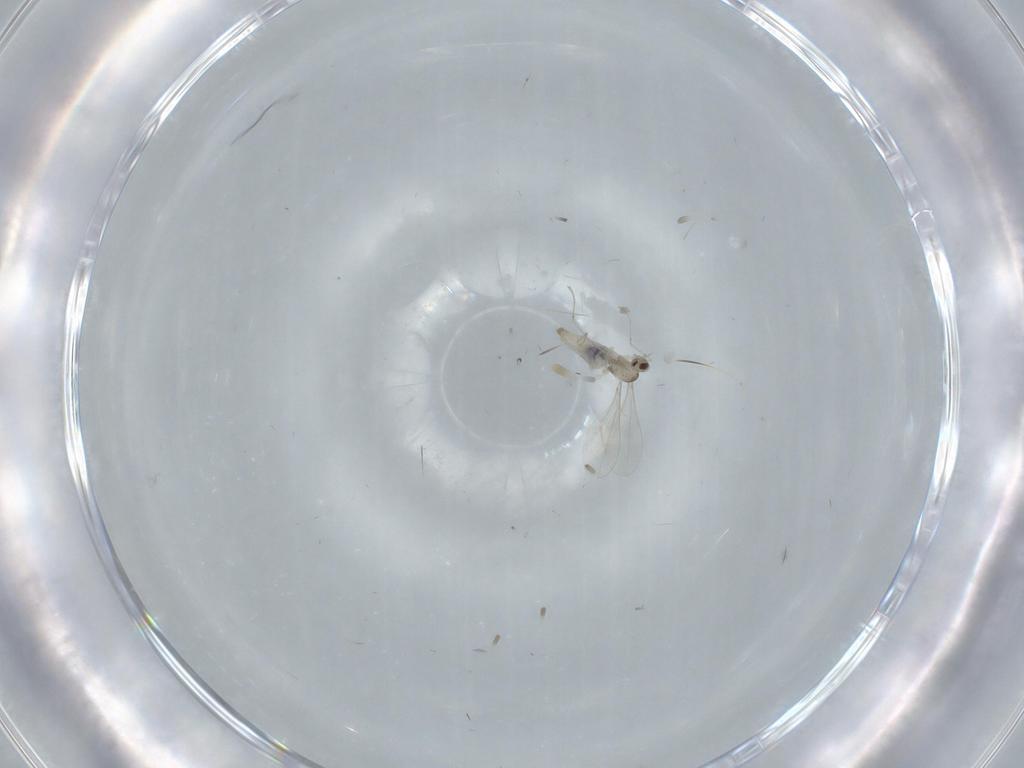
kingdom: Animalia
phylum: Arthropoda
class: Insecta
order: Diptera
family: Cecidomyiidae
